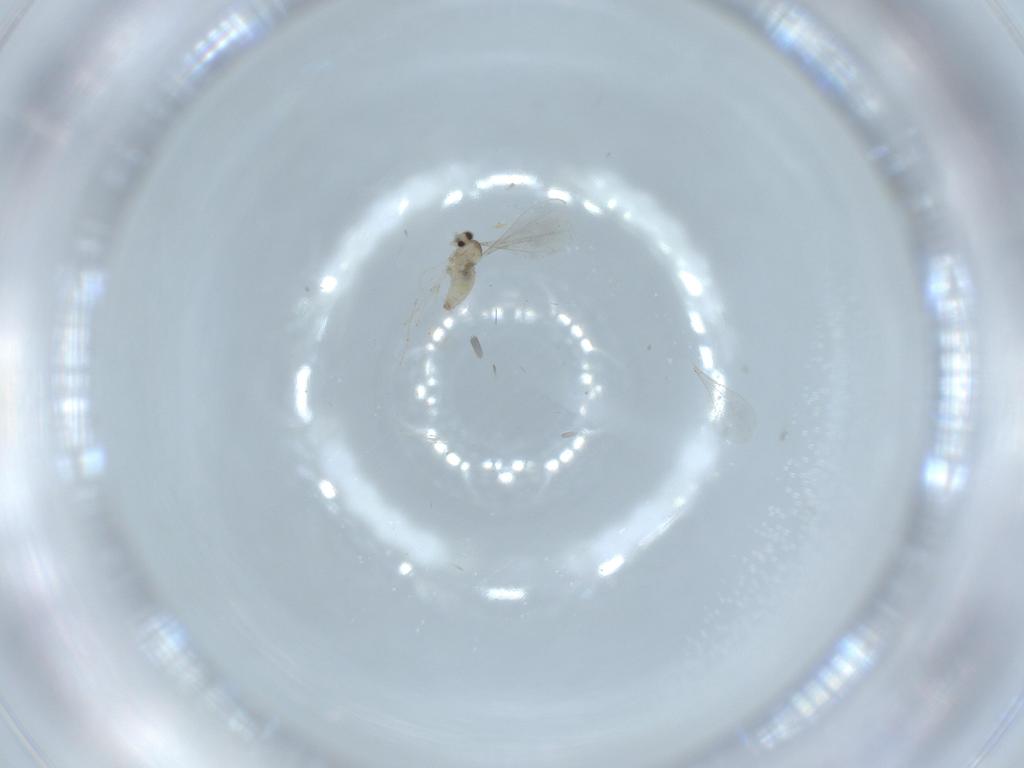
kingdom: Animalia
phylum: Arthropoda
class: Insecta
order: Diptera
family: Cecidomyiidae
